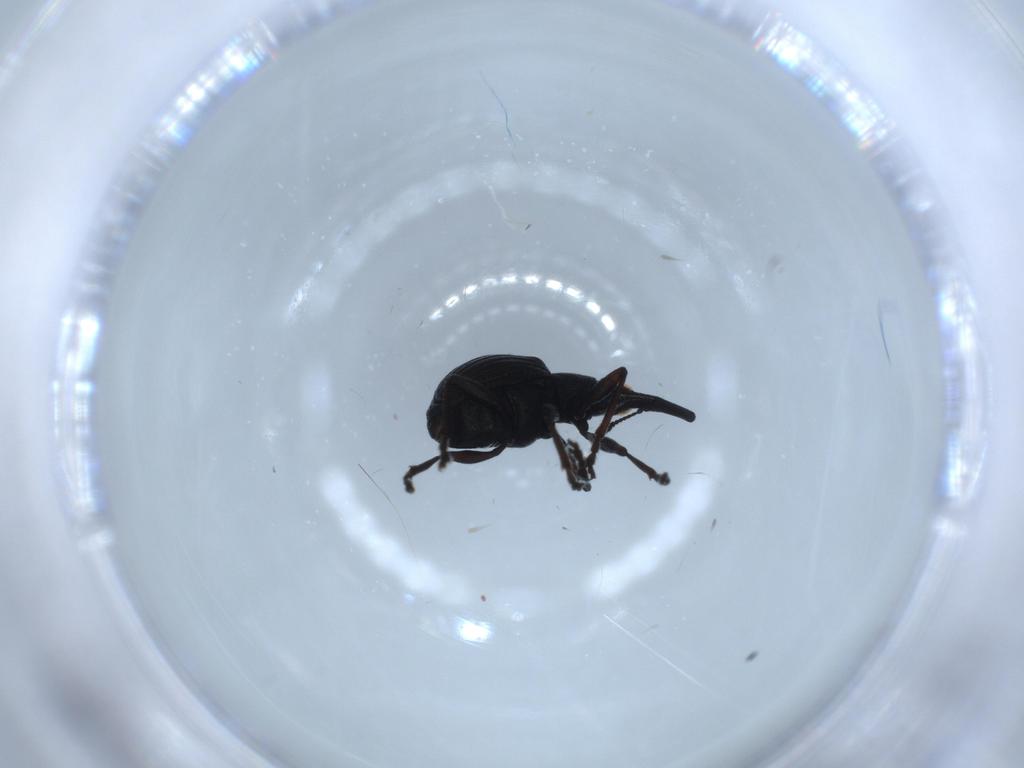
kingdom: Animalia
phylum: Arthropoda
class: Insecta
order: Coleoptera
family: Brentidae
